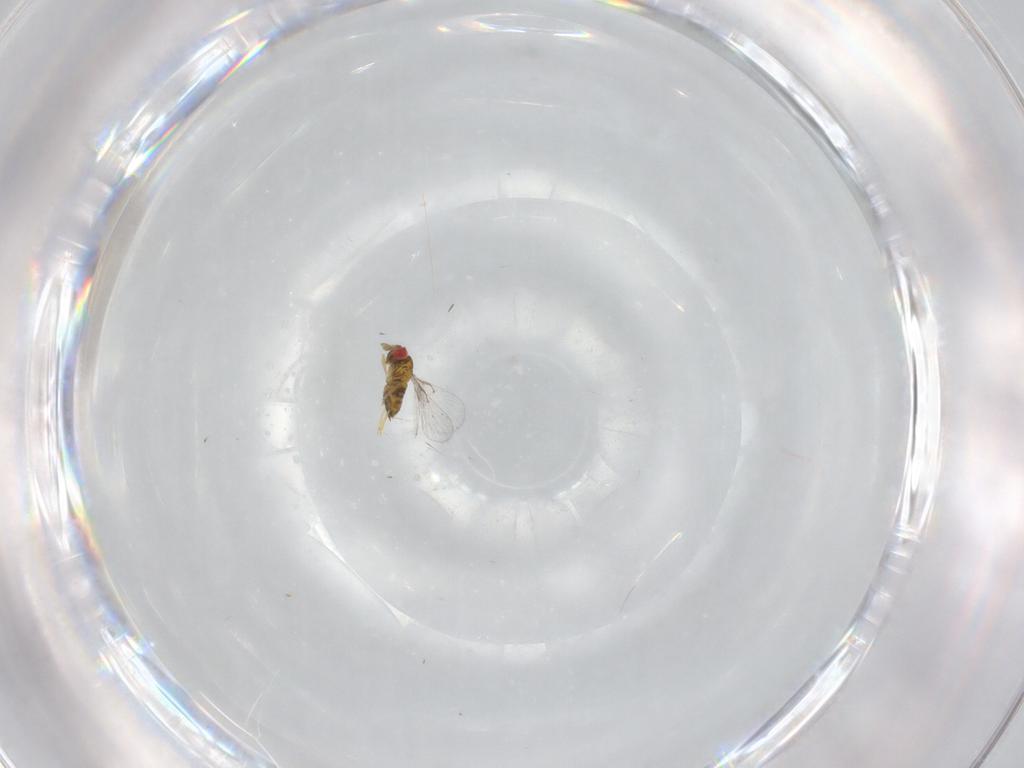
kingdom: Animalia
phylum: Arthropoda
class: Insecta
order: Hymenoptera
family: Trichogrammatidae
